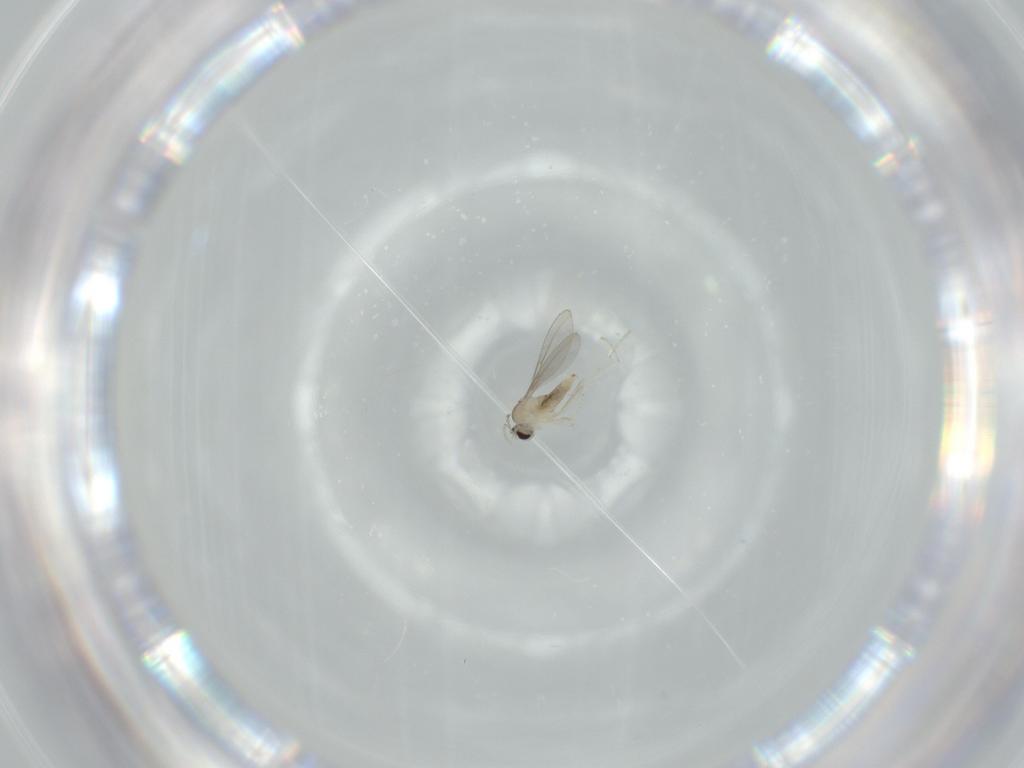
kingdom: Animalia
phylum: Arthropoda
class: Insecta
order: Diptera
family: Cecidomyiidae
